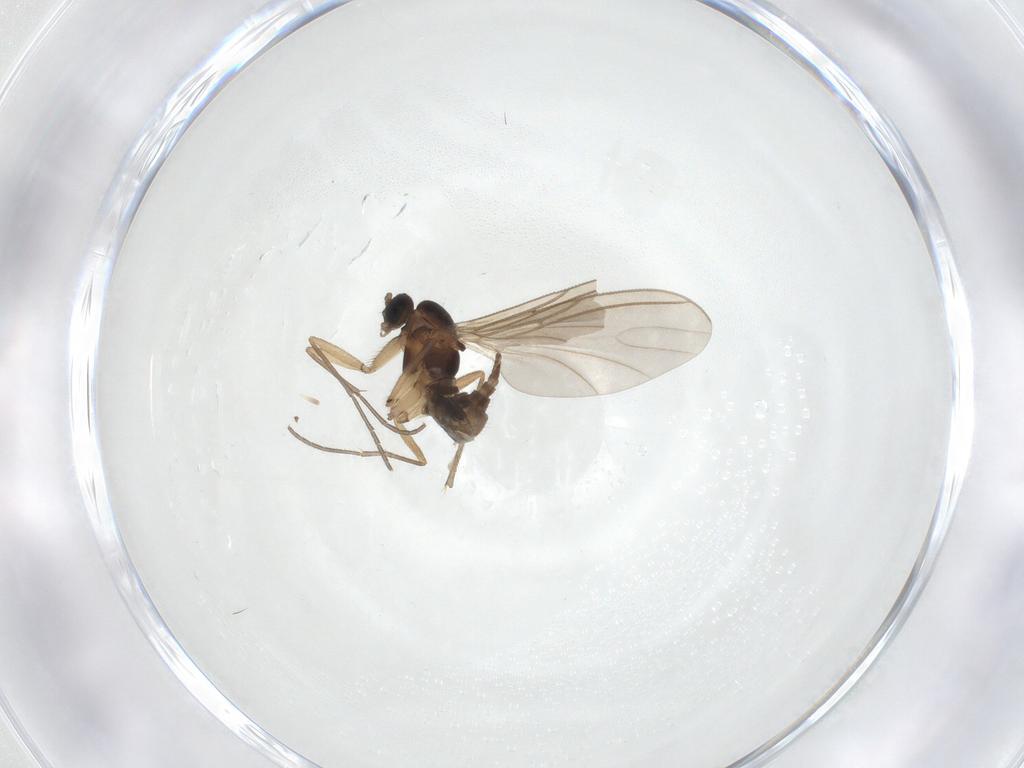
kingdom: Animalia
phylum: Arthropoda
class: Insecta
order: Diptera
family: Sciaridae
